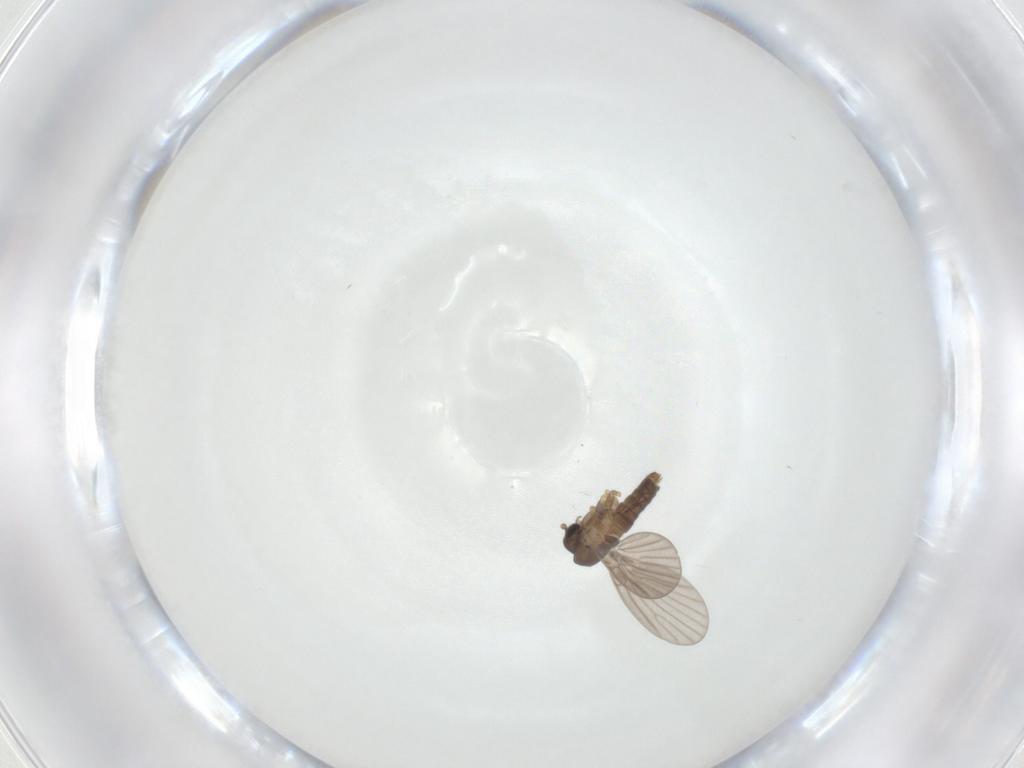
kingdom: Animalia
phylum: Arthropoda
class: Insecta
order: Diptera
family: Psychodidae
